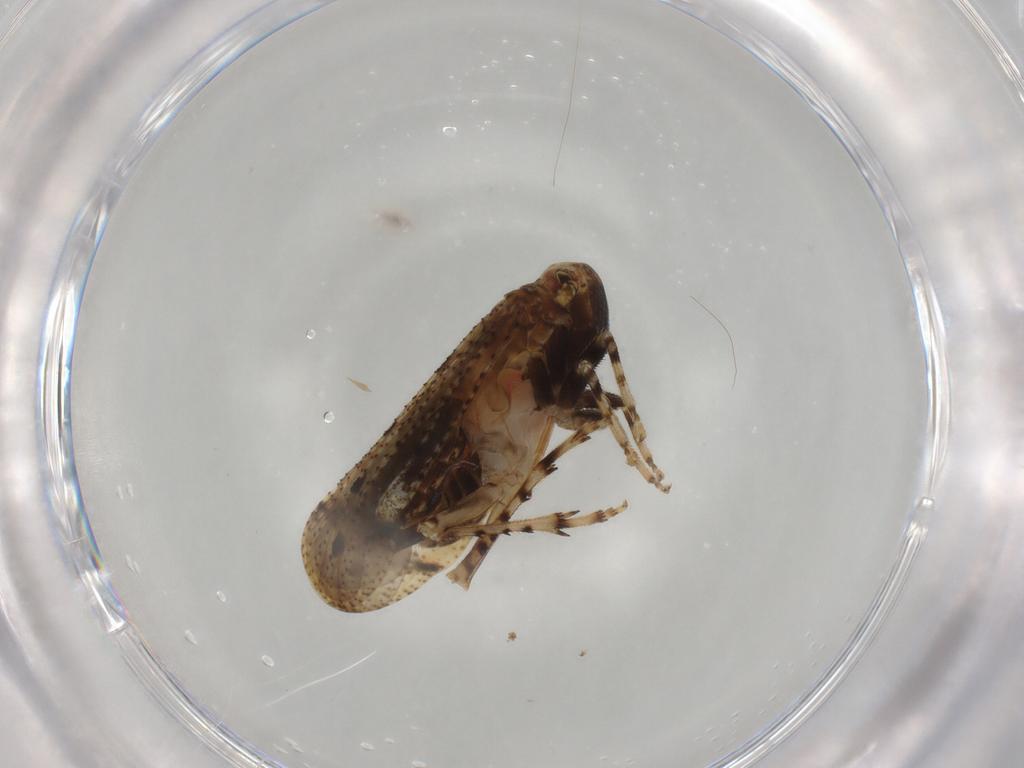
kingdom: Animalia
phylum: Arthropoda
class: Insecta
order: Hemiptera
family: Delphacidae
